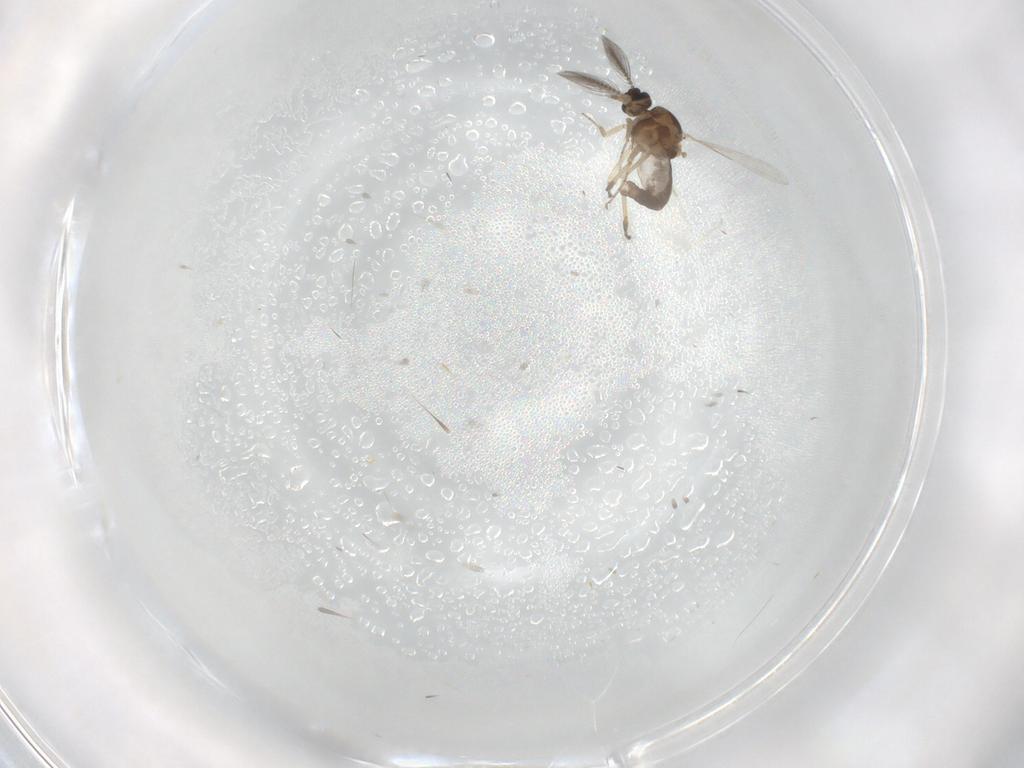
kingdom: Animalia
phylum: Arthropoda
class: Insecta
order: Diptera
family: Ceratopogonidae
